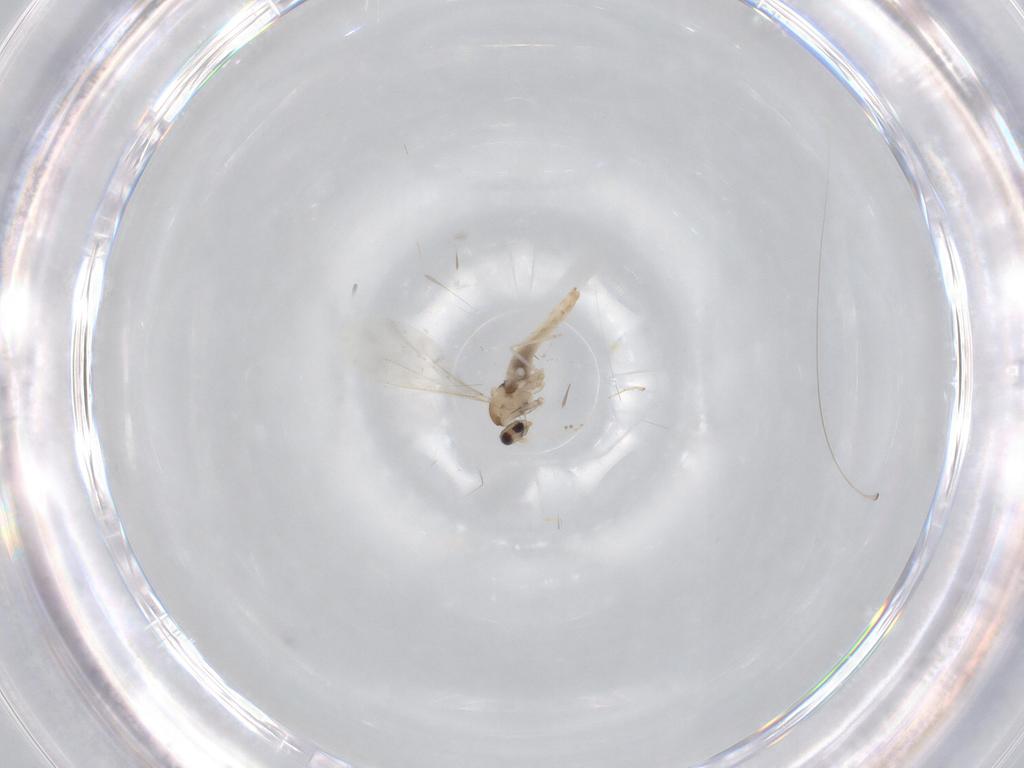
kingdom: Animalia
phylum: Arthropoda
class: Insecta
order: Diptera
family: Cecidomyiidae
